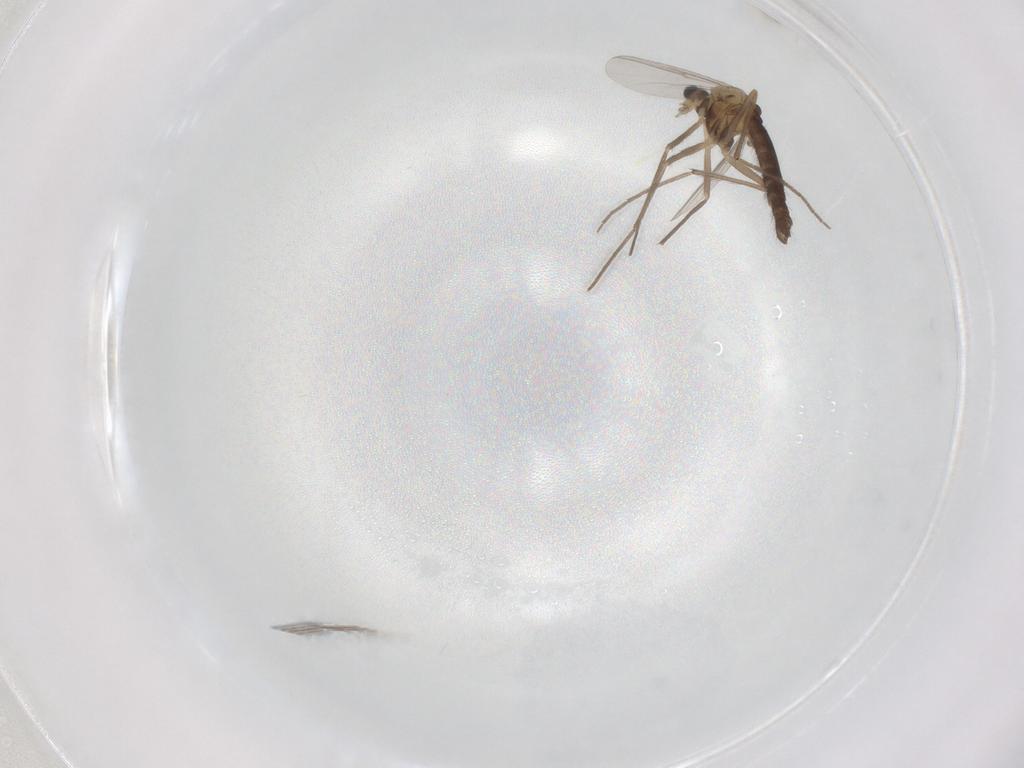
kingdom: Animalia
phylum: Arthropoda
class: Insecta
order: Diptera
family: Chironomidae
